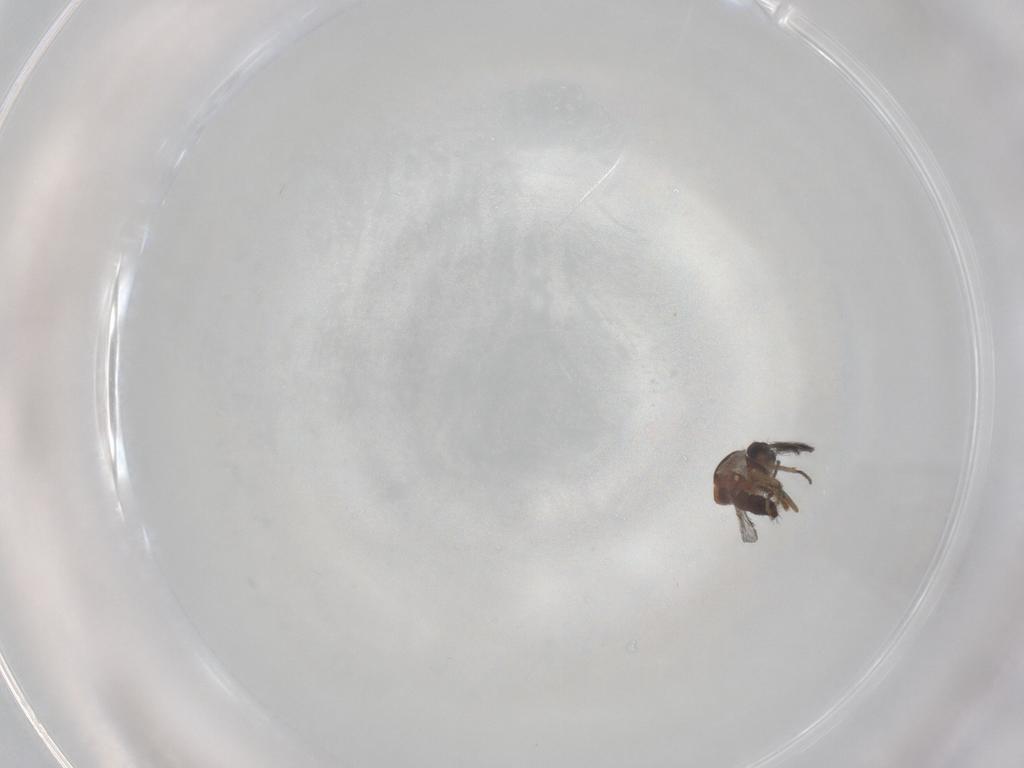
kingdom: Animalia
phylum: Arthropoda
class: Insecta
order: Diptera
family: Ceratopogonidae
